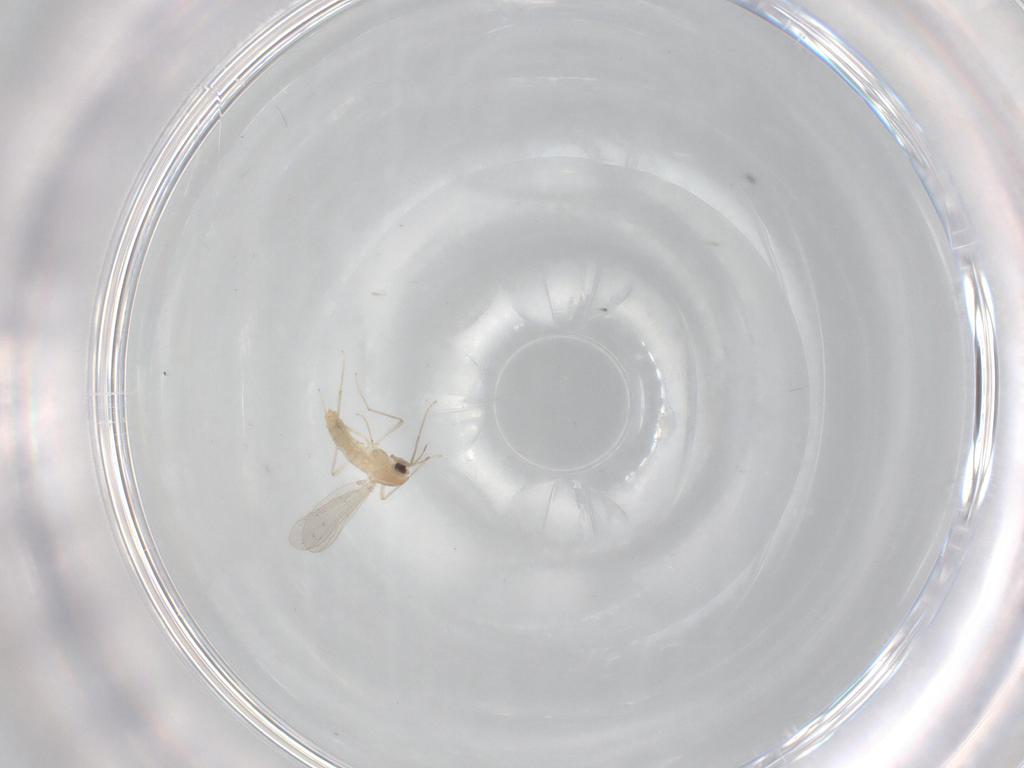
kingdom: Animalia
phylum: Arthropoda
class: Insecta
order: Diptera
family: Chironomidae
